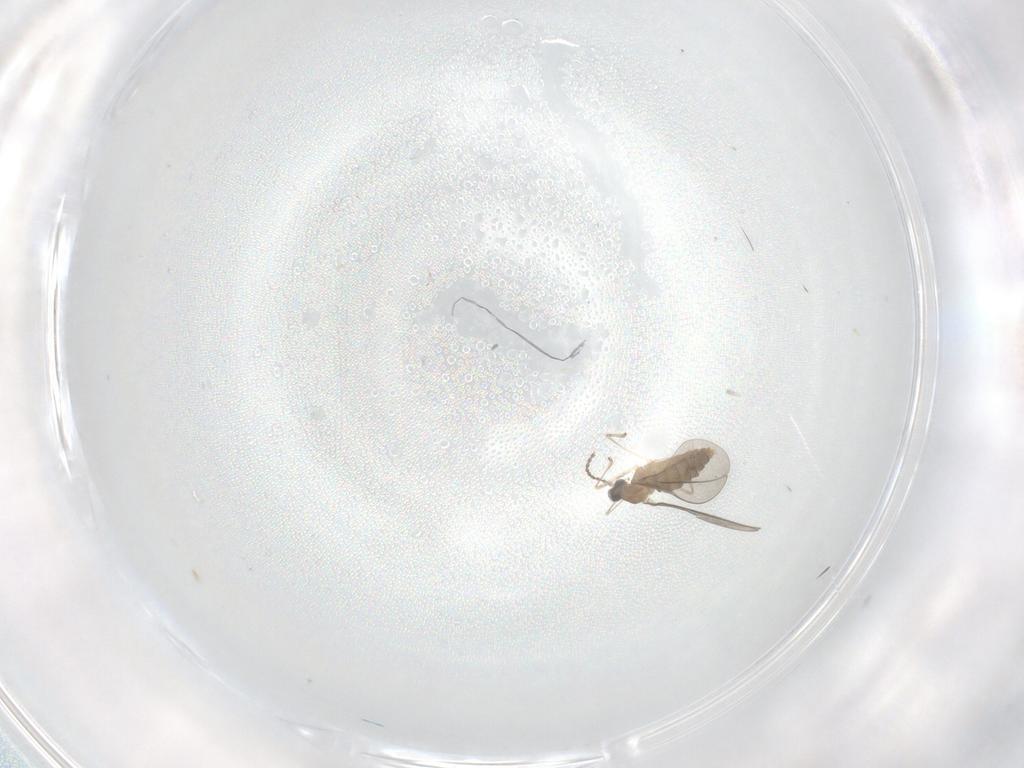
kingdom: Animalia
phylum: Arthropoda
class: Insecta
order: Diptera
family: Cecidomyiidae
